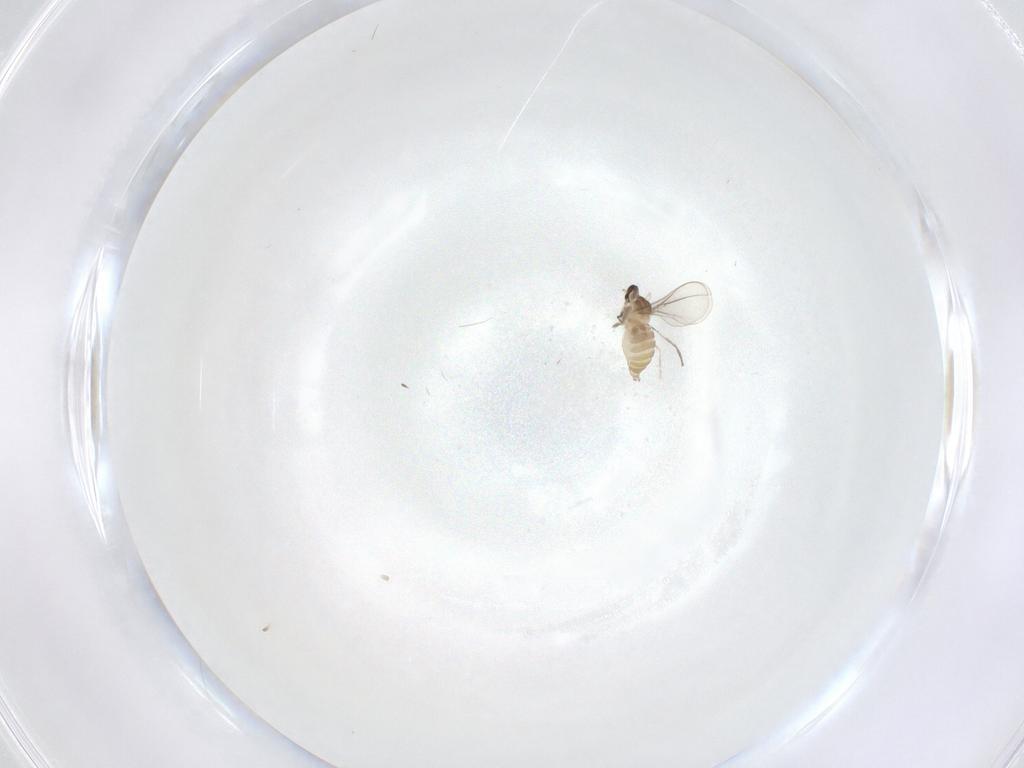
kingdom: Animalia
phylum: Arthropoda
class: Insecta
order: Diptera
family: Cecidomyiidae
